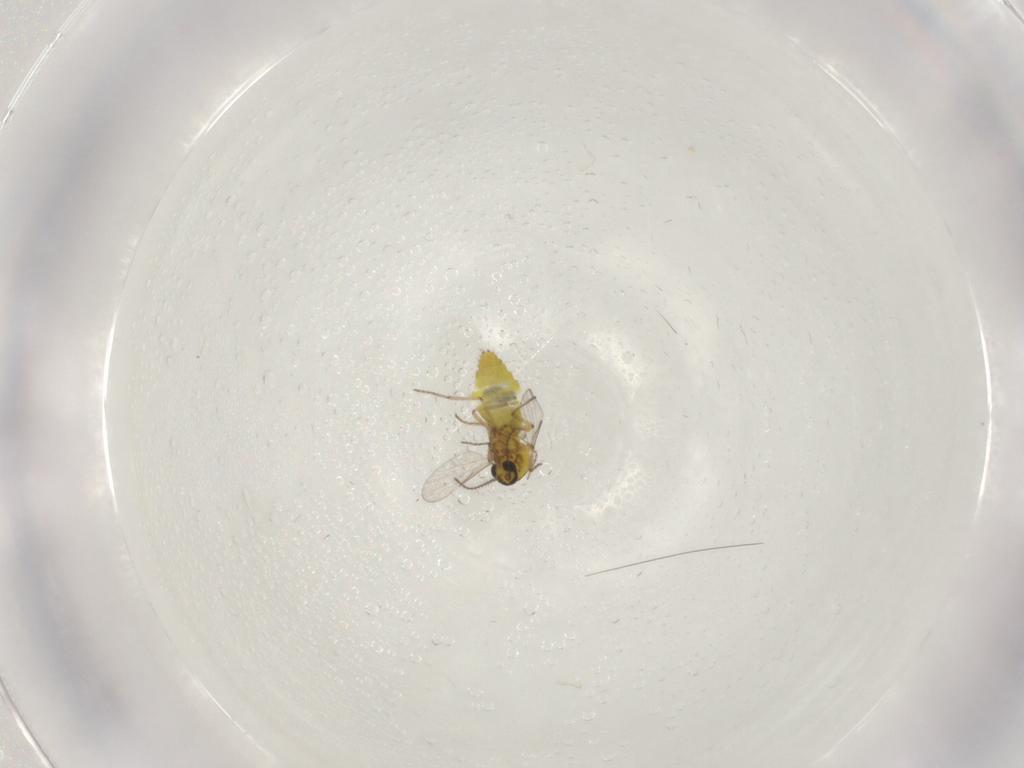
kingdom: Animalia
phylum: Arthropoda
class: Insecta
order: Diptera
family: Ceratopogonidae
